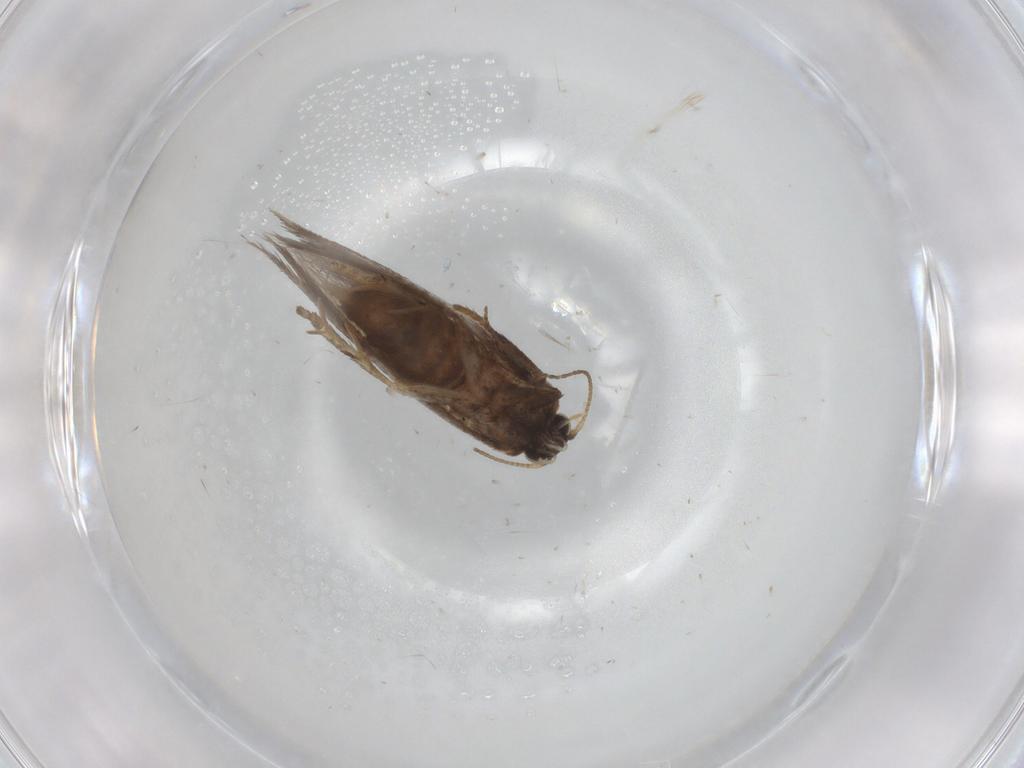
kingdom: Animalia
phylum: Arthropoda
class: Insecta
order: Lepidoptera
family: Nepticulidae
